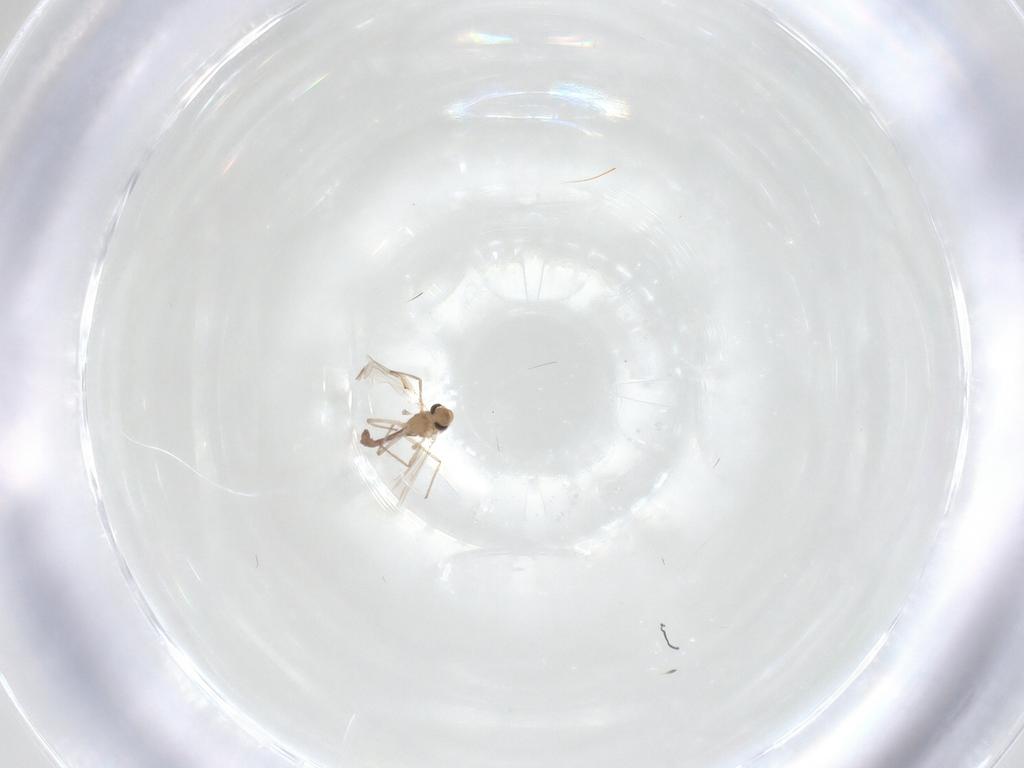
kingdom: Animalia
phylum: Arthropoda
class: Insecta
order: Diptera
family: Chironomidae
